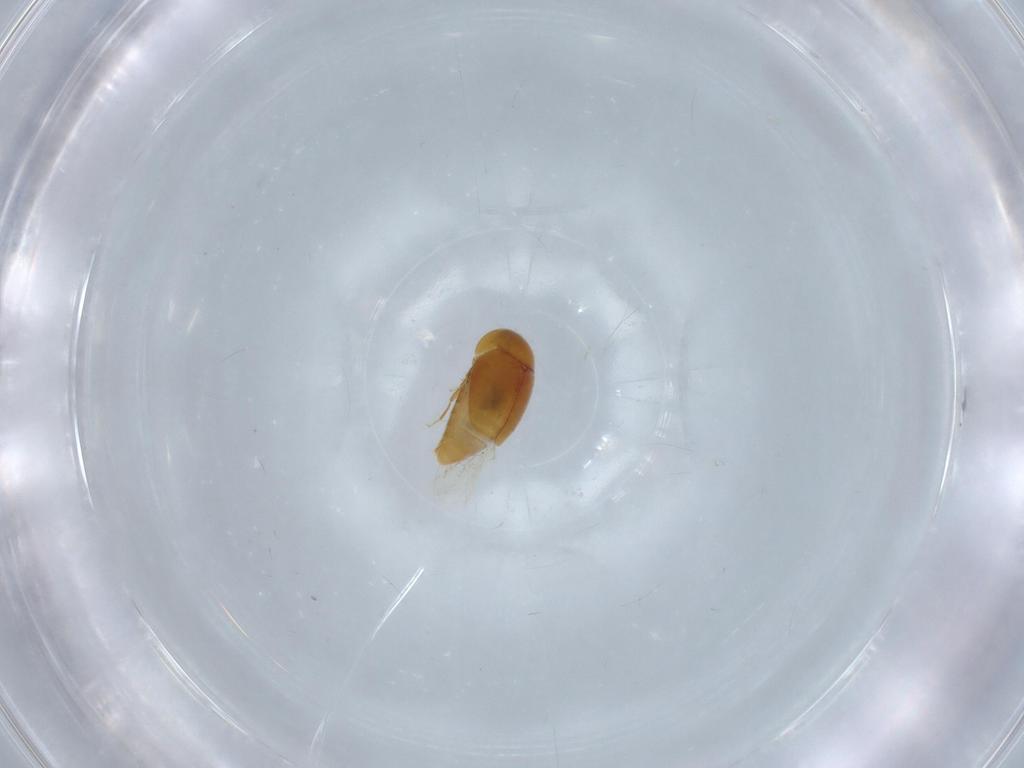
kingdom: Animalia
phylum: Arthropoda
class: Insecta
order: Coleoptera
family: Corylophidae
